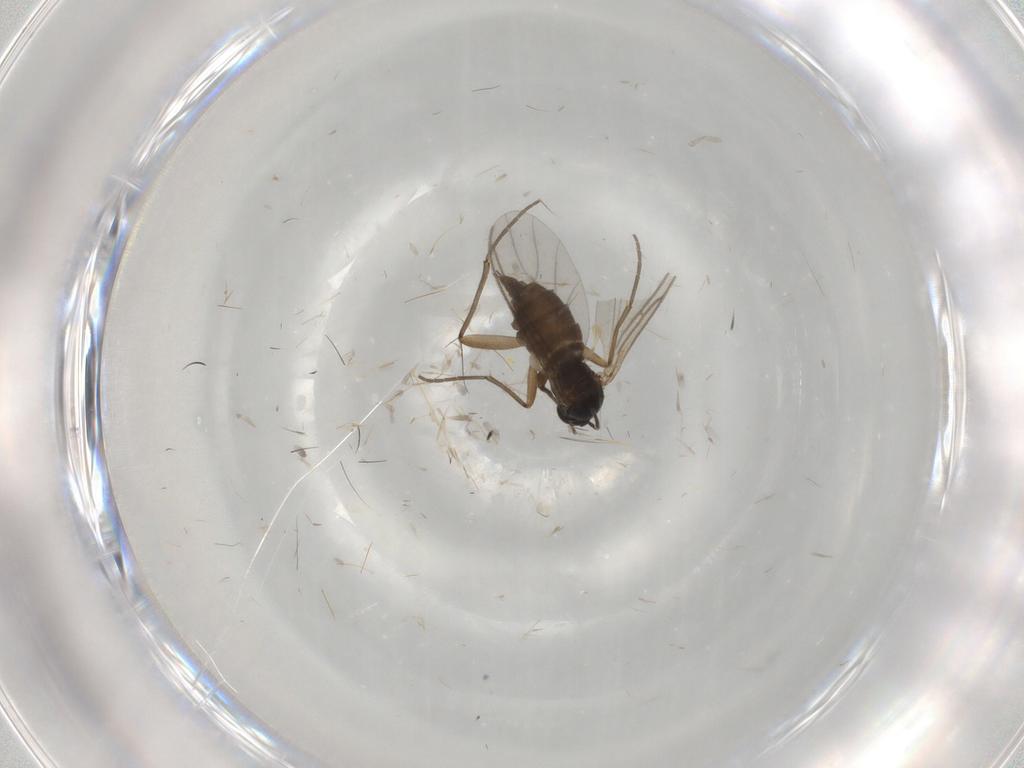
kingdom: Animalia
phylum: Arthropoda
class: Insecta
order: Diptera
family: Sciaridae
